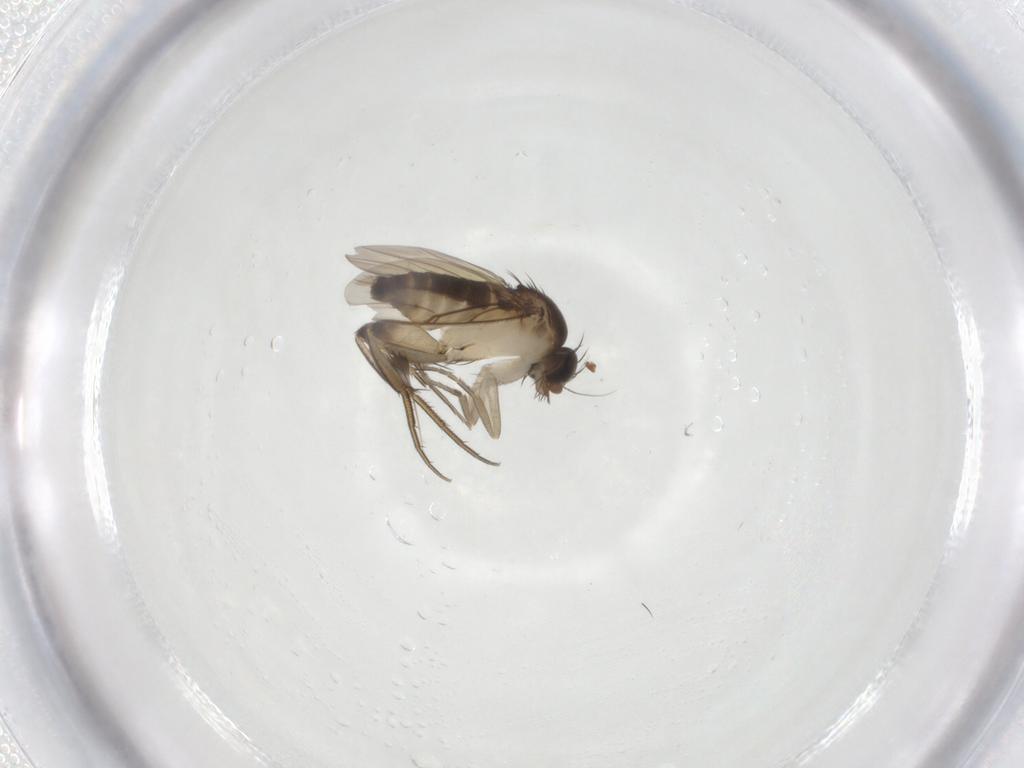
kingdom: Animalia
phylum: Arthropoda
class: Insecta
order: Diptera
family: Phoridae
